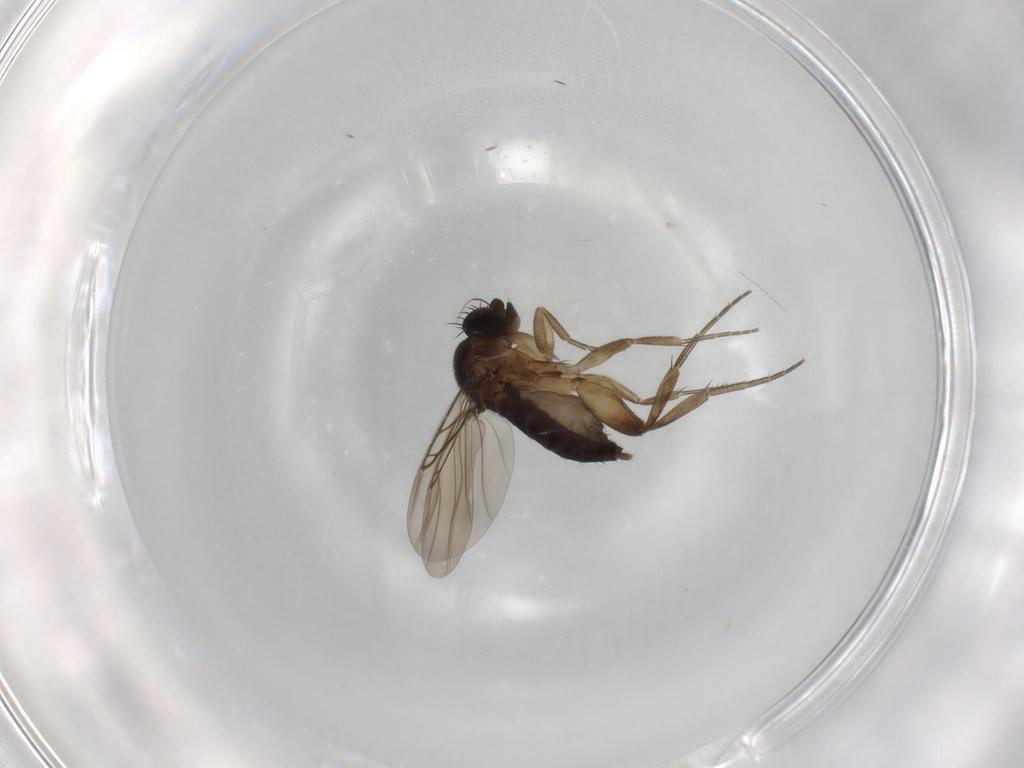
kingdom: Animalia
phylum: Arthropoda
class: Insecta
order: Diptera
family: Phoridae
